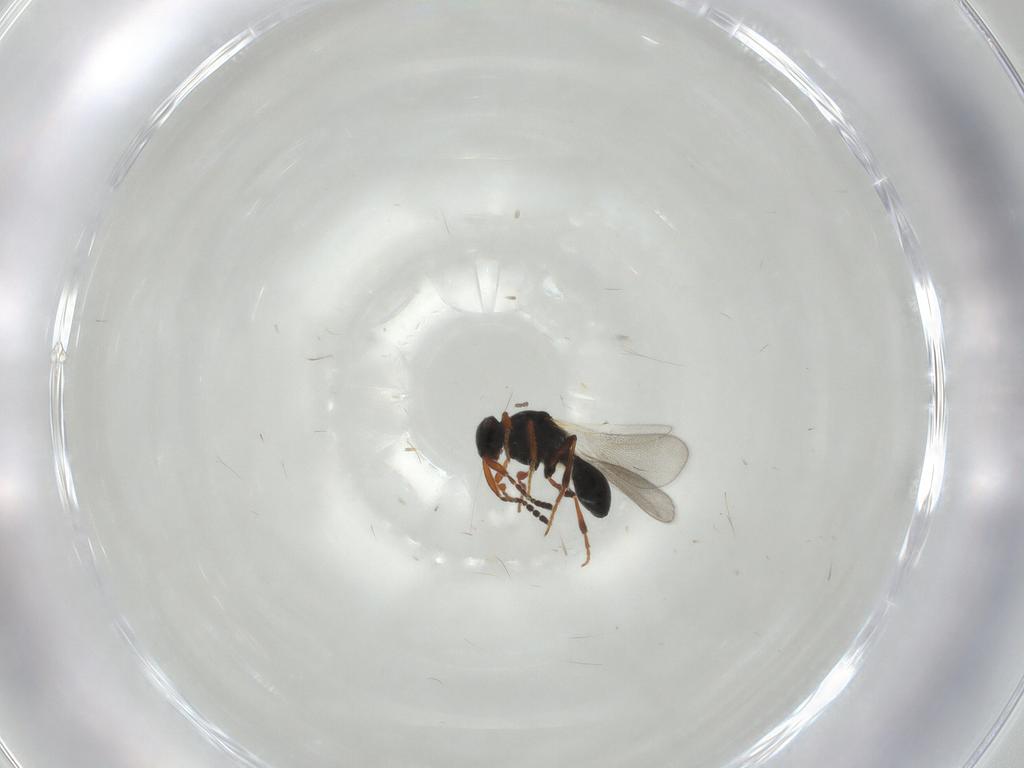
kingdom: Animalia
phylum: Arthropoda
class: Insecta
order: Hymenoptera
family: Platygastridae
